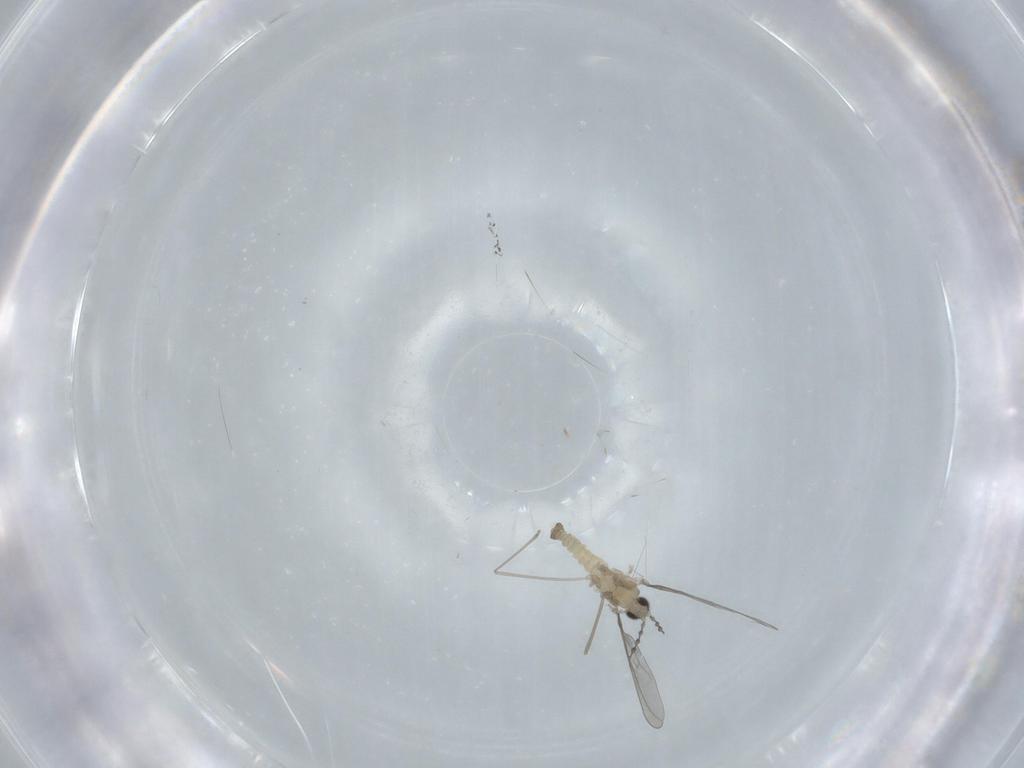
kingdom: Animalia
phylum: Arthropoda
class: Insecta
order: Diptera
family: Cecidomyiidae
